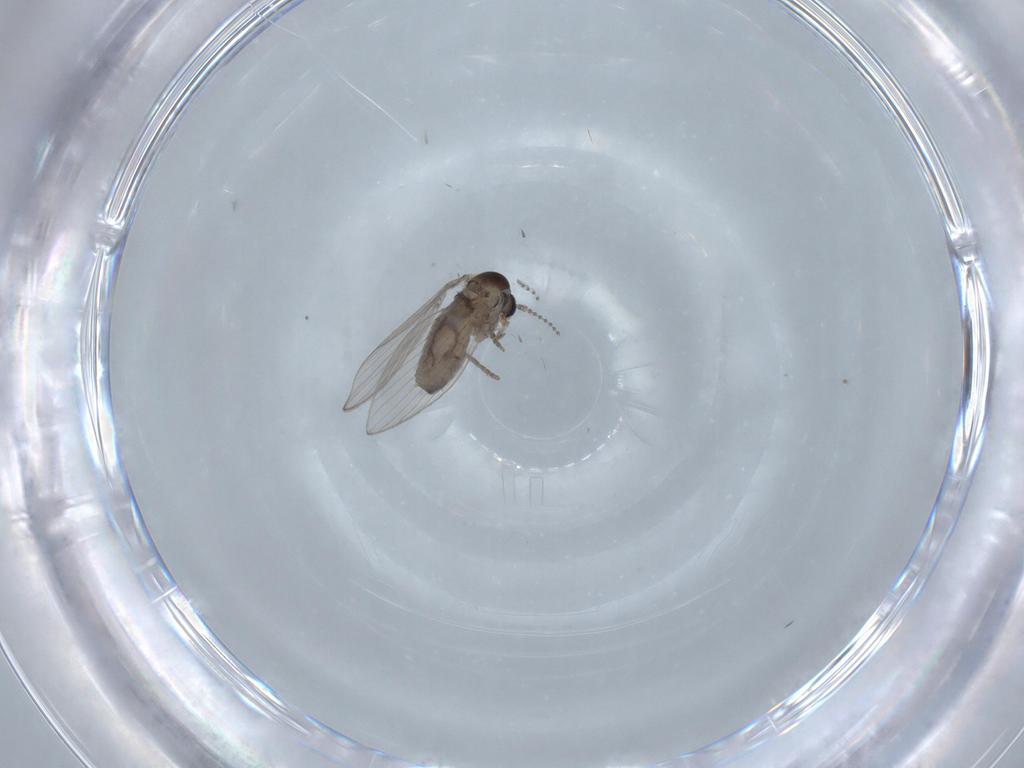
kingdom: Animalia
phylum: Arthropoda
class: Insecta
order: Diptera
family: Psychodidae
